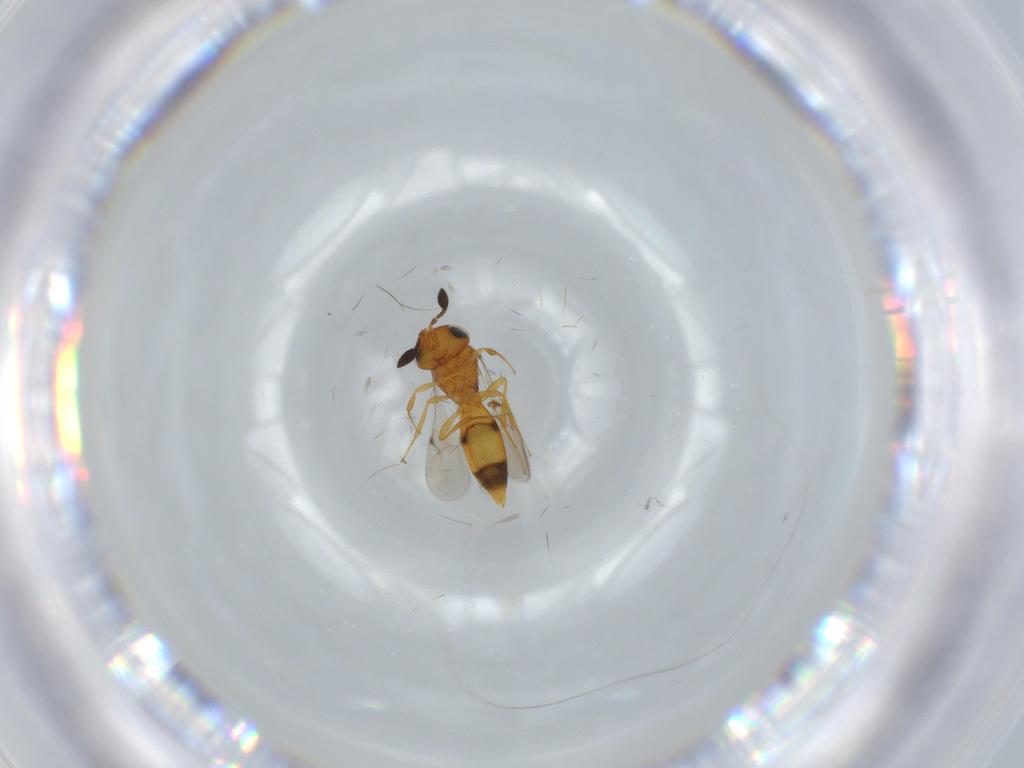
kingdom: Animalia
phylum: Arthropoda
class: Insecta
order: Hymenoptera
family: Scelionidae
